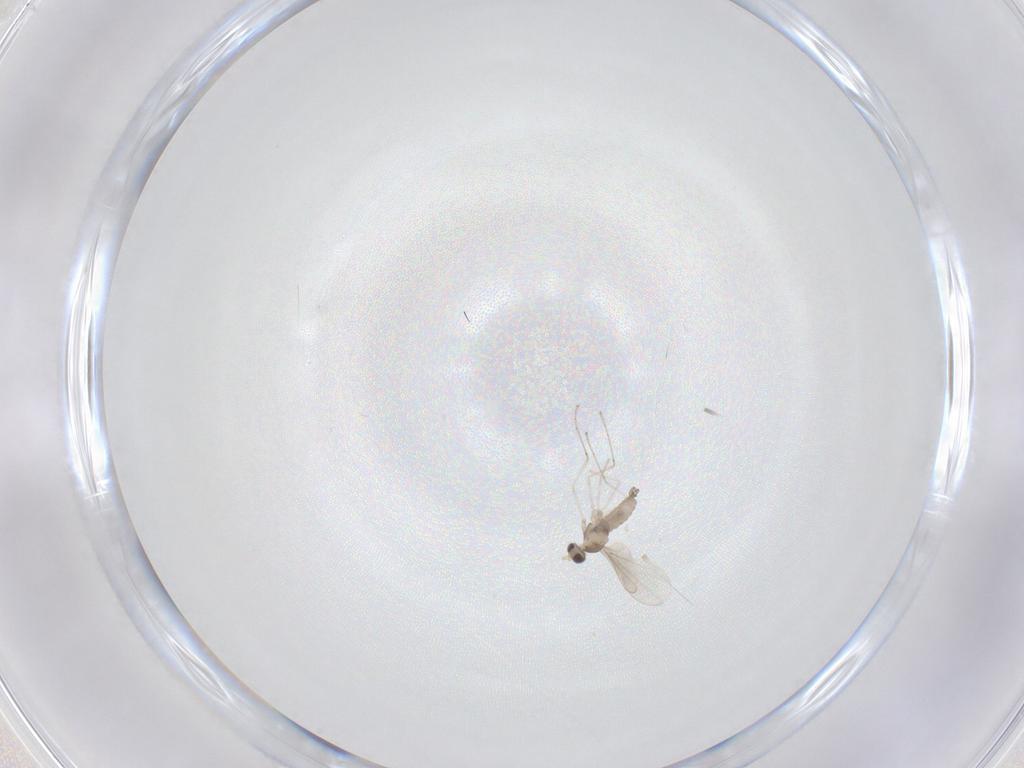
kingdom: Animalia
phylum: Arthropoda
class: Insecta
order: Diptera
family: Cecidomyiidae
